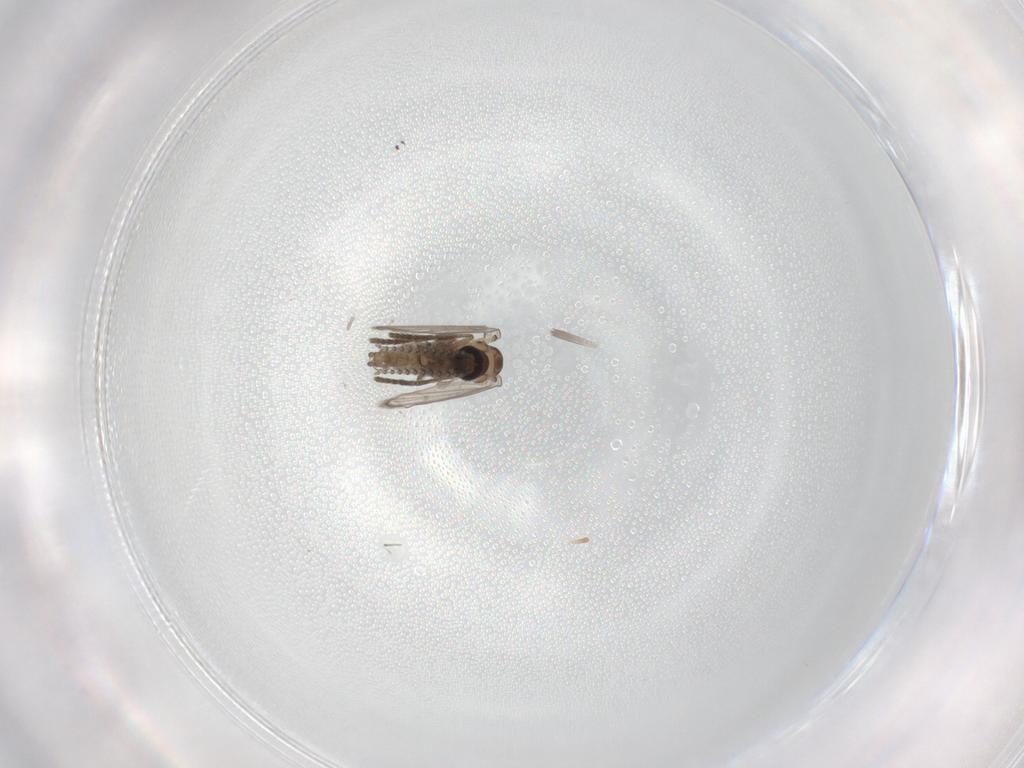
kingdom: Animalia
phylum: Arthropoda
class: Insecta
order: Diptera
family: Psychodidae
